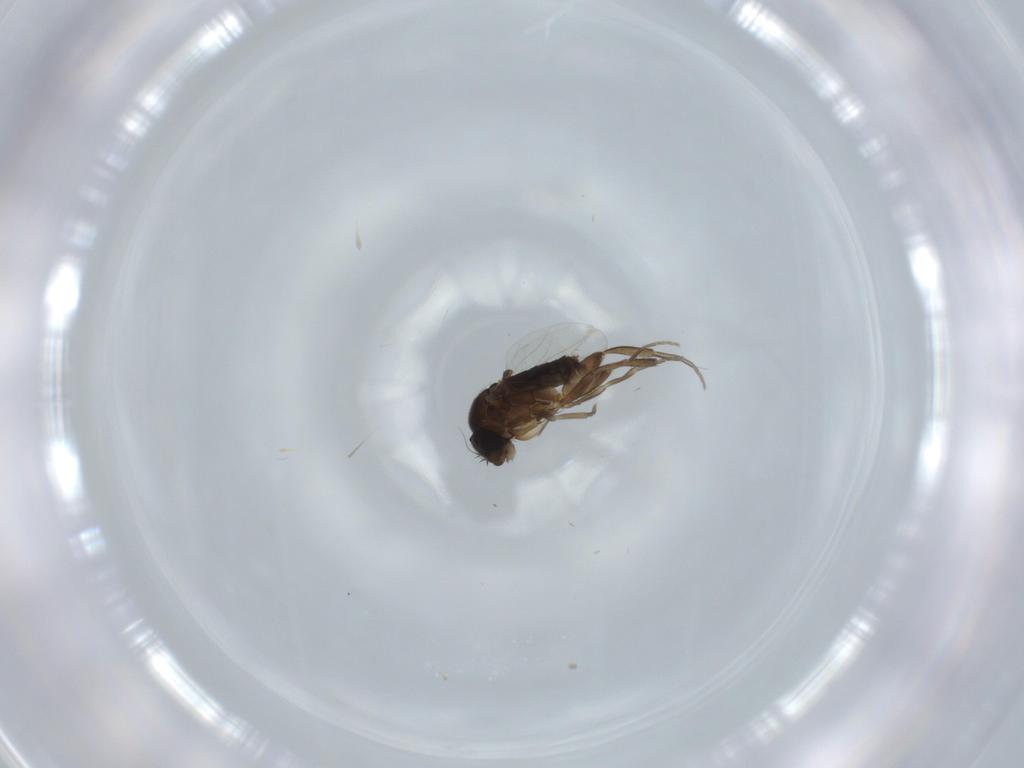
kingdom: Animalia
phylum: Arthropoda
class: Insecta
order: Diptera
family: Phoridae
